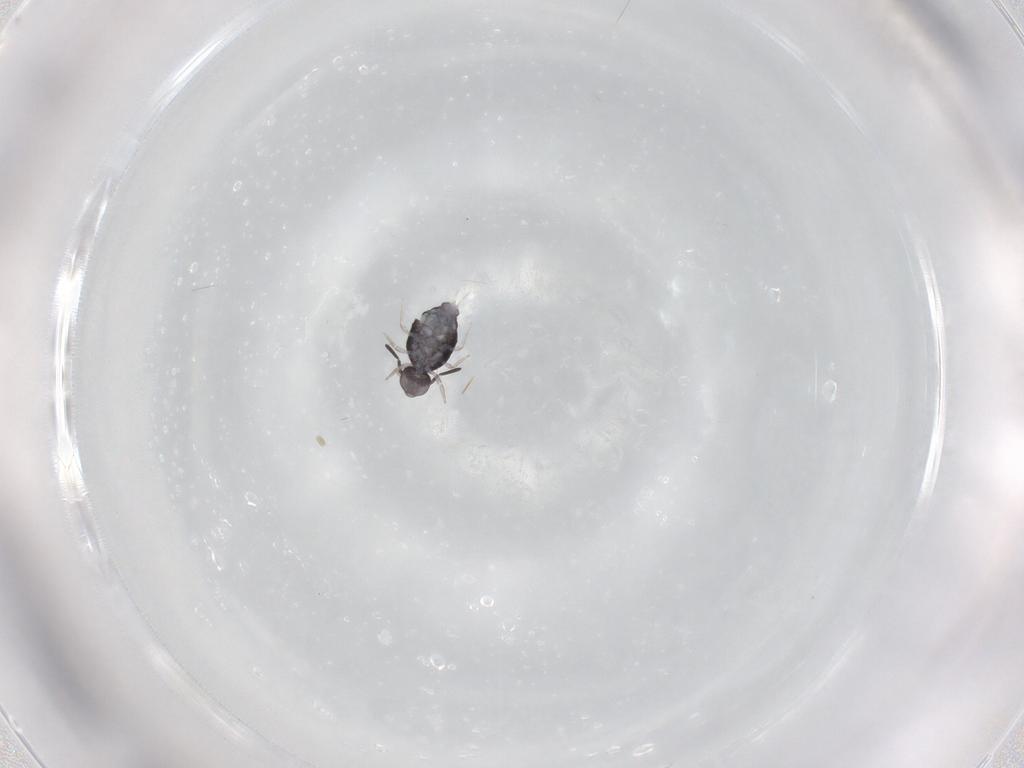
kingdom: Animalia
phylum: Arthropoda
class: Collembola
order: Symphypleona
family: Katiannidae
